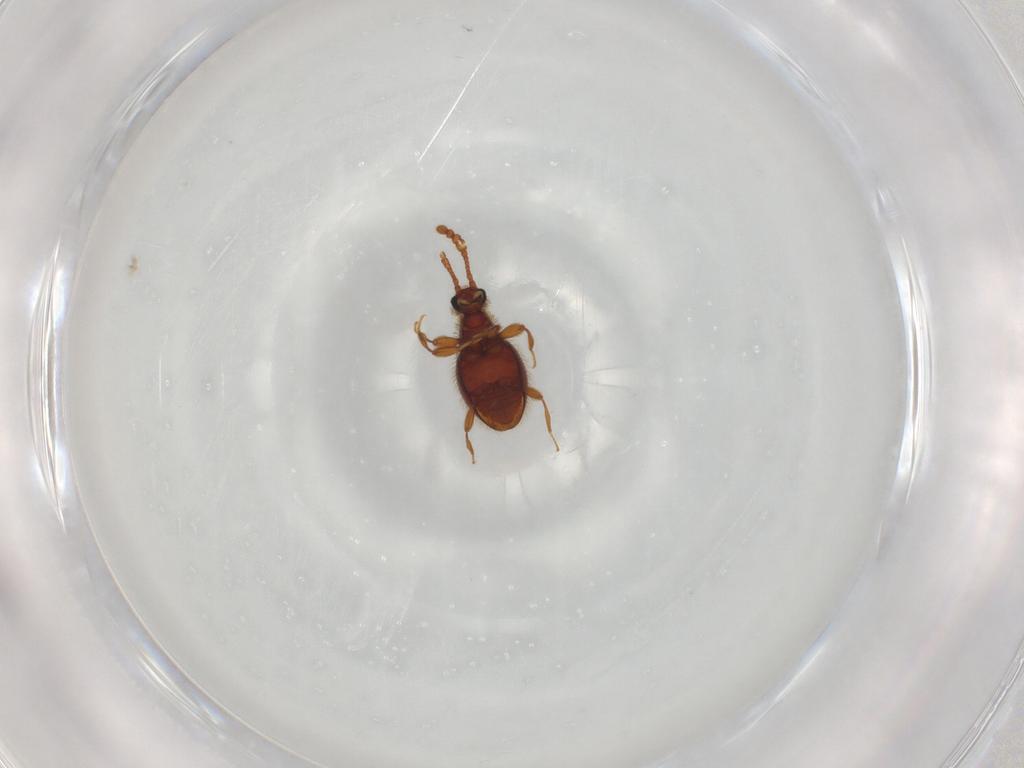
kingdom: Animalia
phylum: Arthropoda
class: Insecta
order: Coleoptera
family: Staphylinidae
